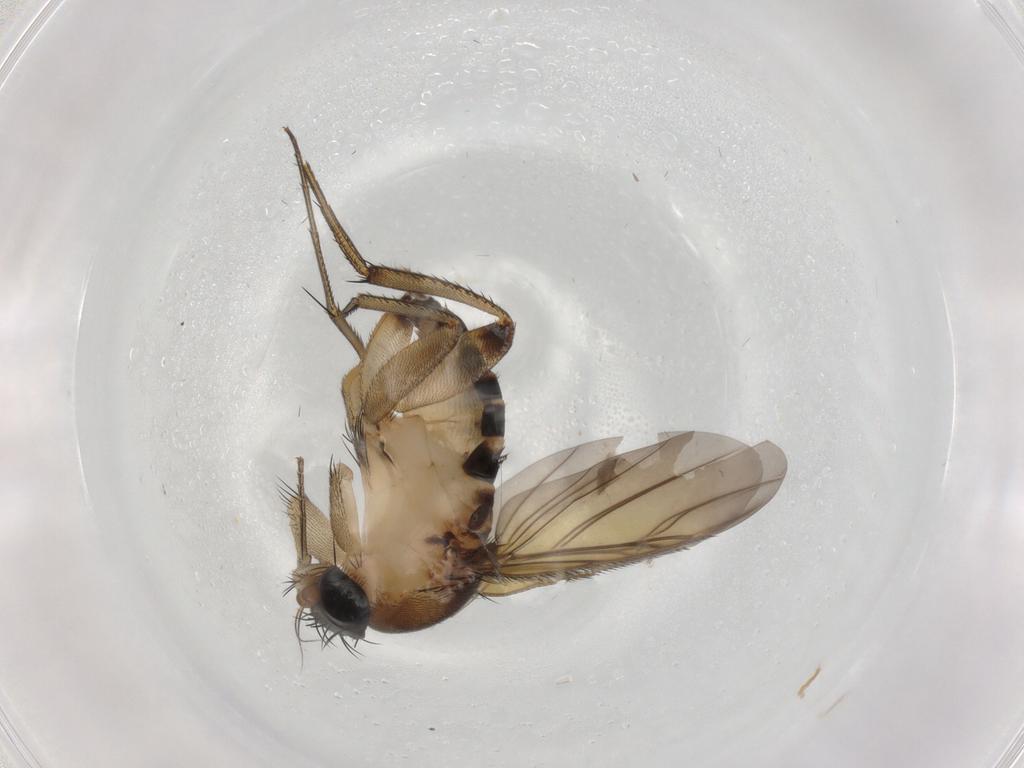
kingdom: Animalia
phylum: Arthropoda
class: Insecta
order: Diptera
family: Phoridae
